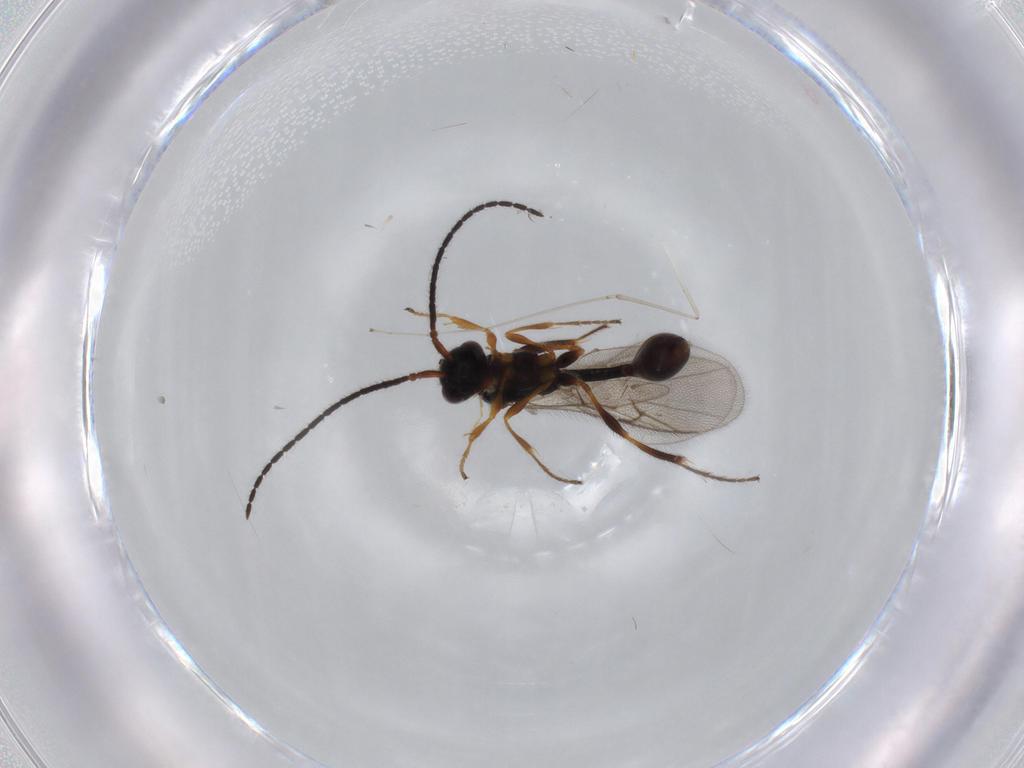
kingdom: Animalia
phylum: Arthropoda
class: Insecta
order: Hymenoptera
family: Diapriidae
